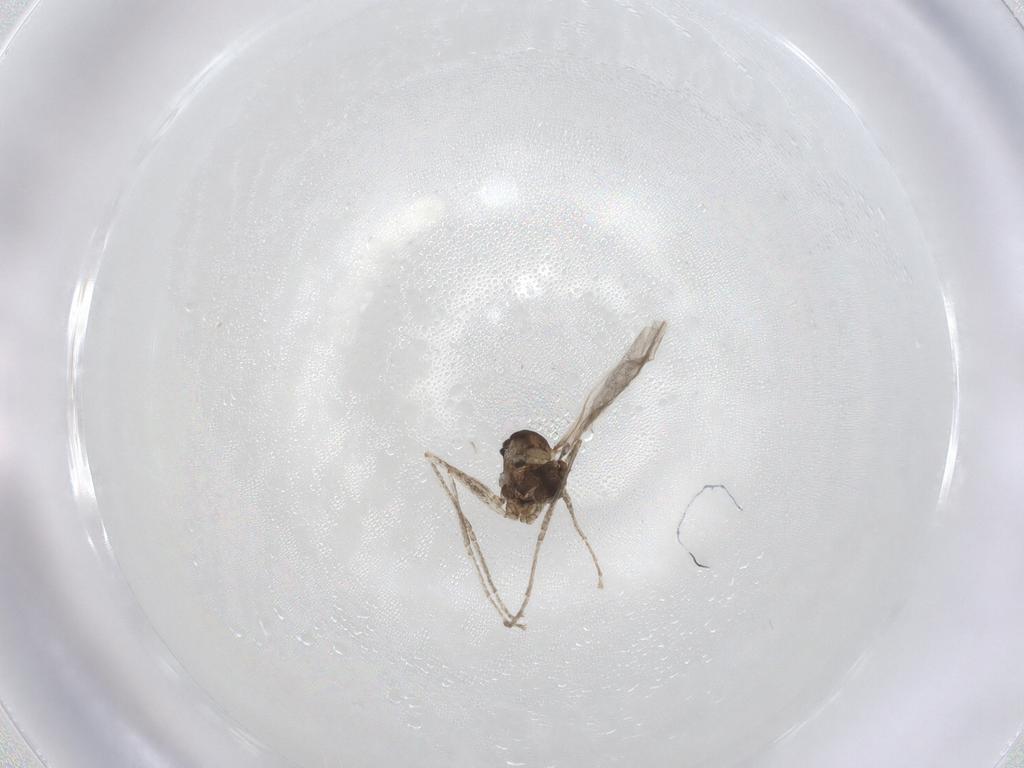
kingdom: Animalia
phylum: Arthropoda
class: Insecta
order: Diptera
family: Cecidomyiidae
